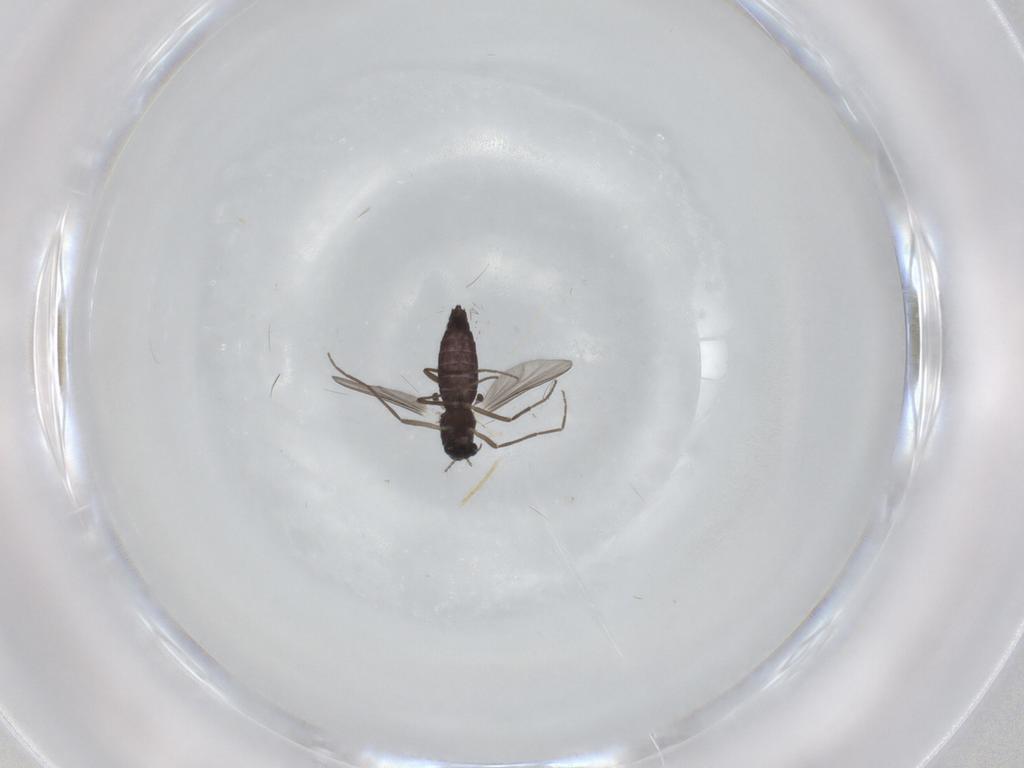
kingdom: Animalia
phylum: Arthropoda
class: Insecta
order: Diptera
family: Chironomidae
